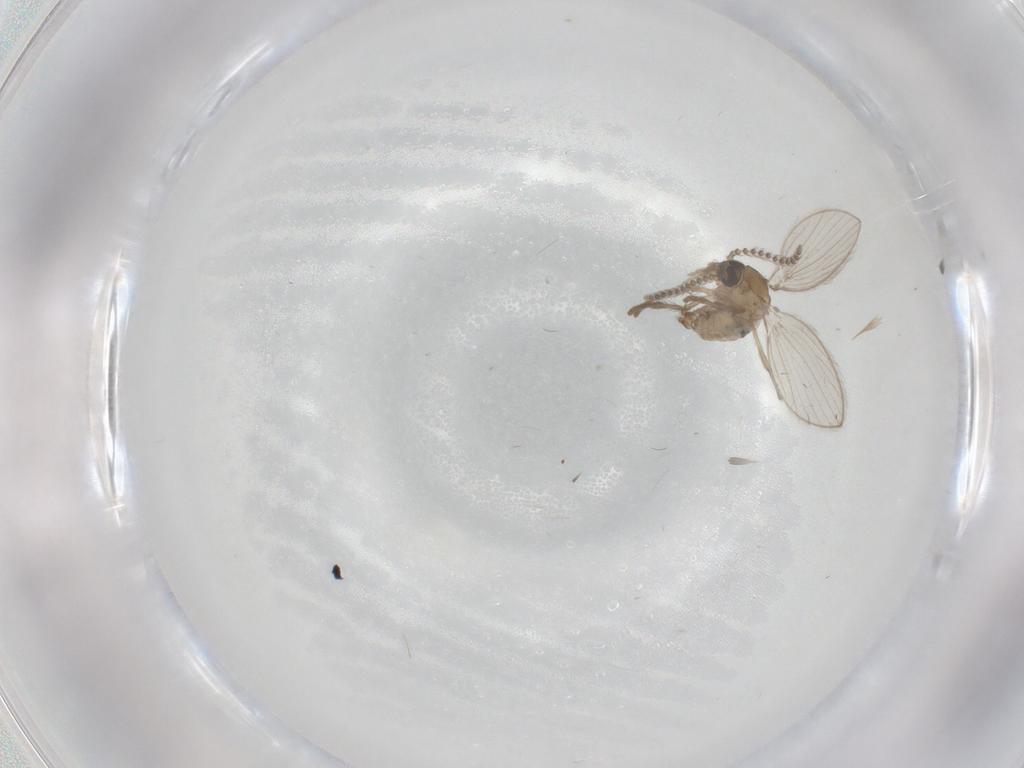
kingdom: Animalia
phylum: Arthropoda
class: Insecta
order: Diptera
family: Psychodidae
